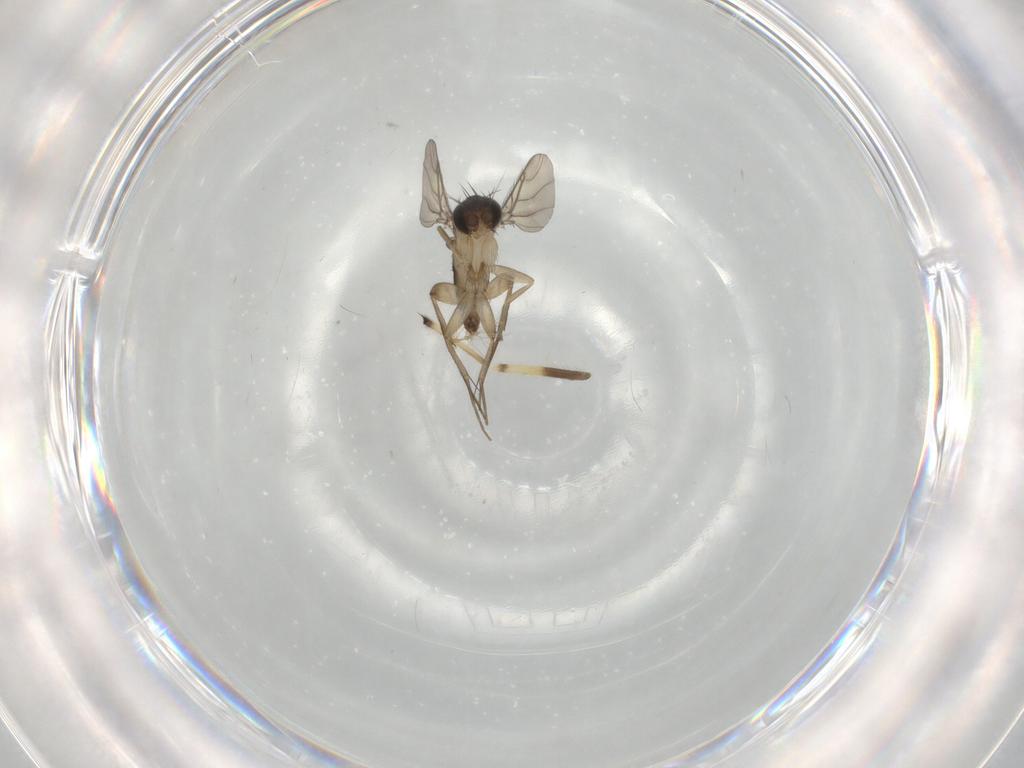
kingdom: Animalia
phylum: Arthropoda
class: Insecta
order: Diptera
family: Phoridae
